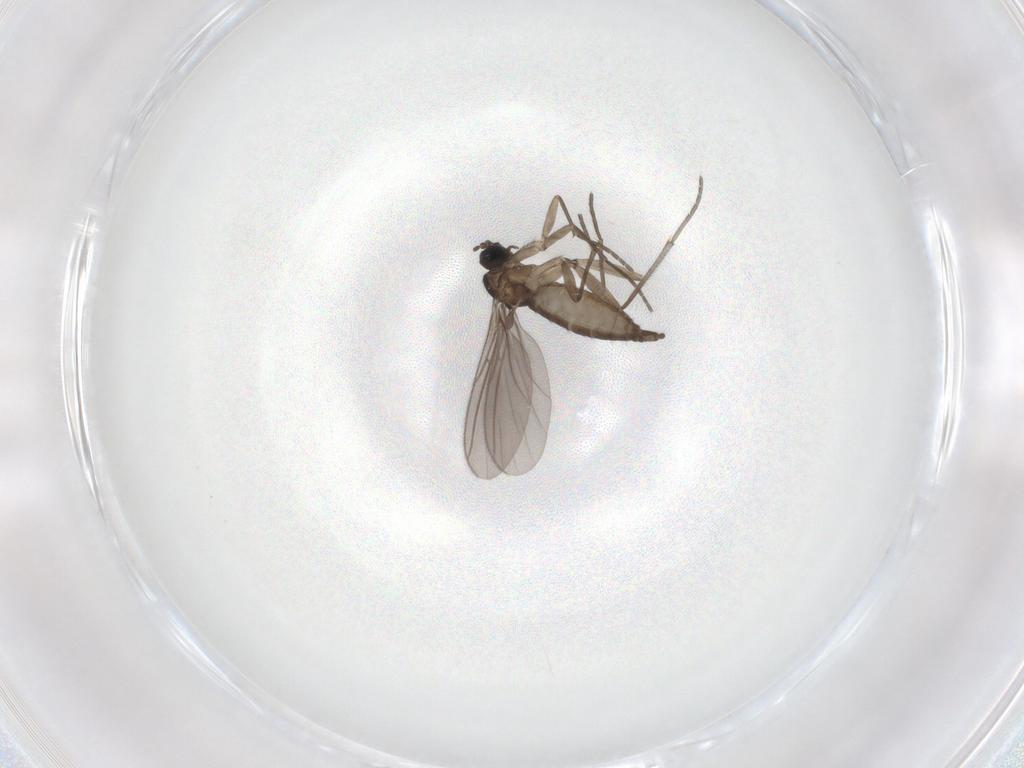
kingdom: Animalia
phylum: Arthropoda
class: Insecta
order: Diptera
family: Sciaridae
